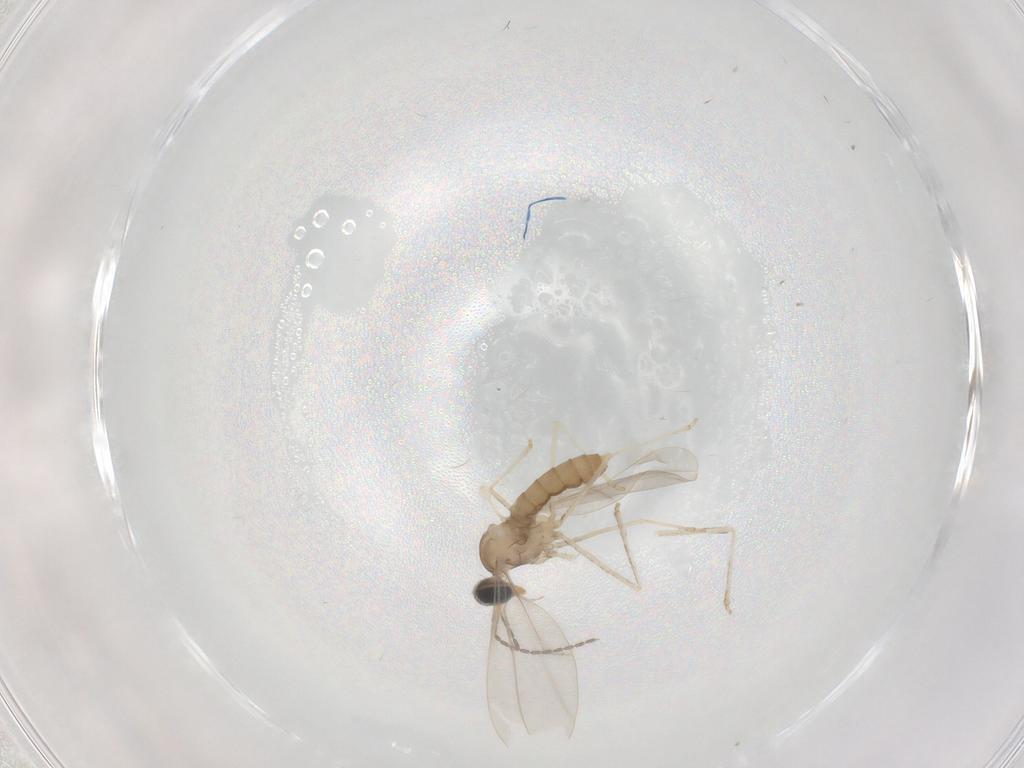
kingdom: Animalia
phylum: Arthropoda
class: Insecta
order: Diptera
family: Cecidomyiidae
